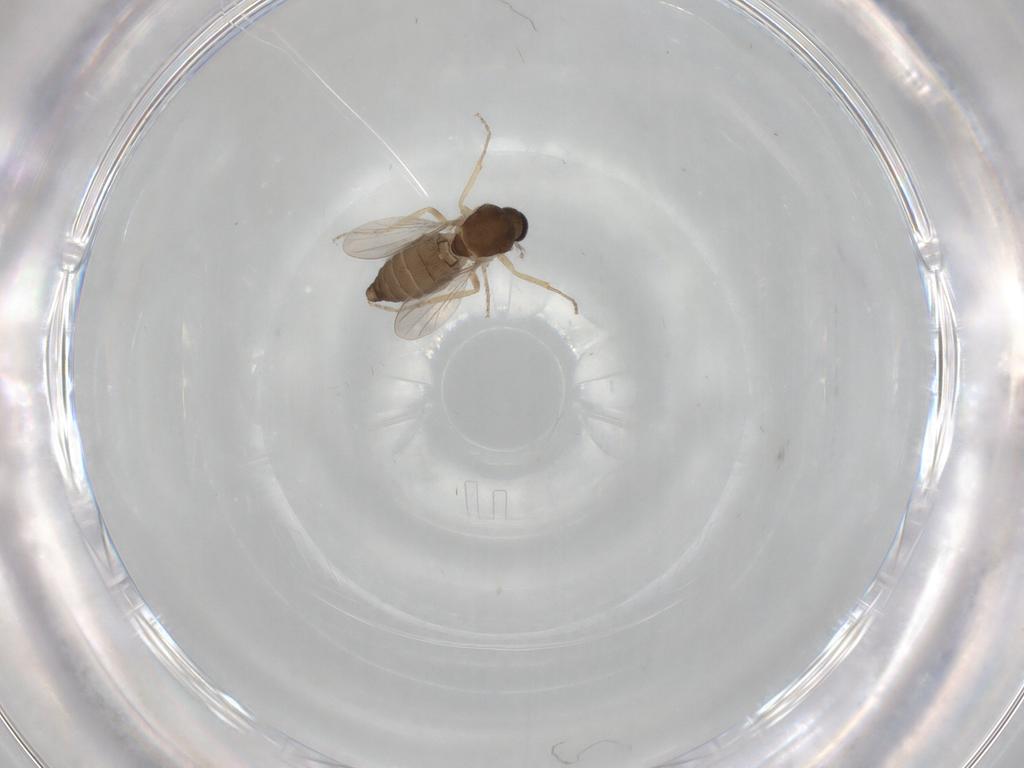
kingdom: Animalia
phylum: Arthropoda
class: Insecta
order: Diptera
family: Ceratopogonidae
